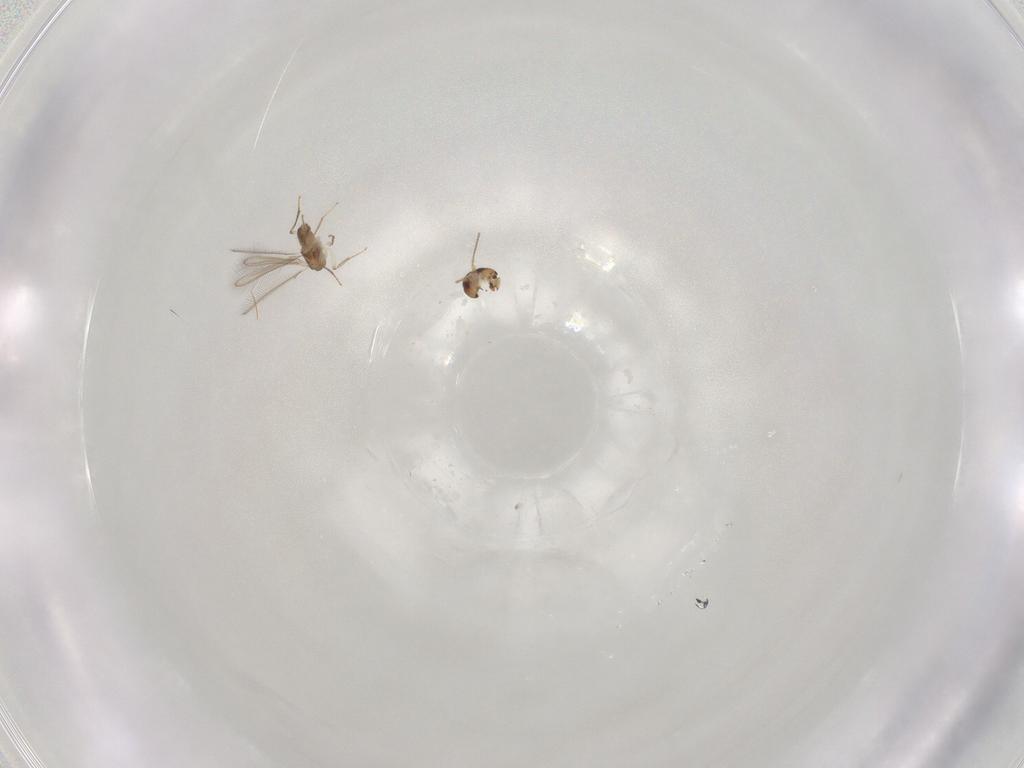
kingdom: Animalia
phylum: Arthropoda
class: Insecta
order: Hymenoptera
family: Mymaridae
